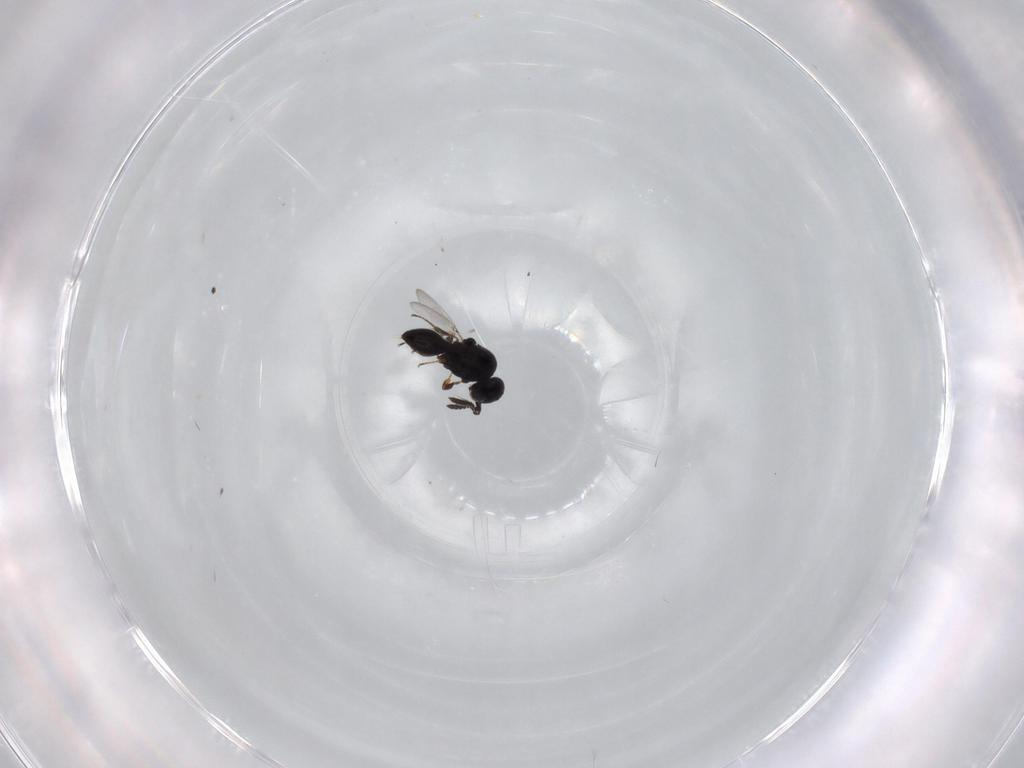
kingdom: Animalia
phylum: Arthropoda
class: Insecta
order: Hymenoptera
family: Platygastridae
